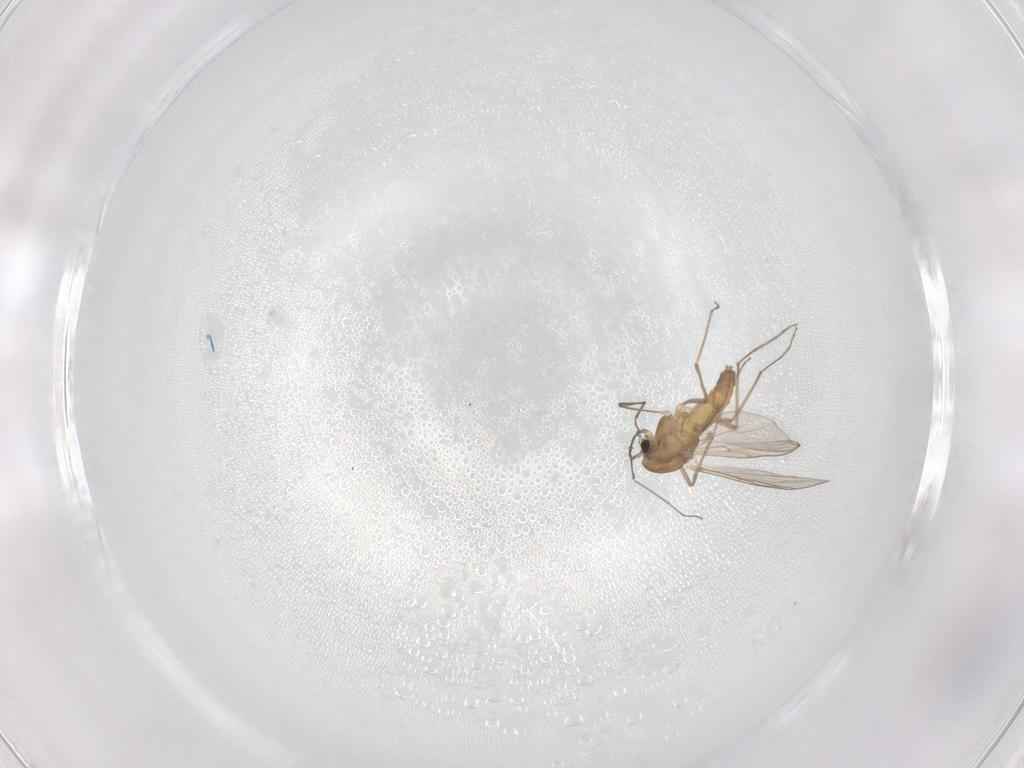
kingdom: Animalia
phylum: Arthropoda
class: Insecta
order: Diptera
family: Chironomidae
